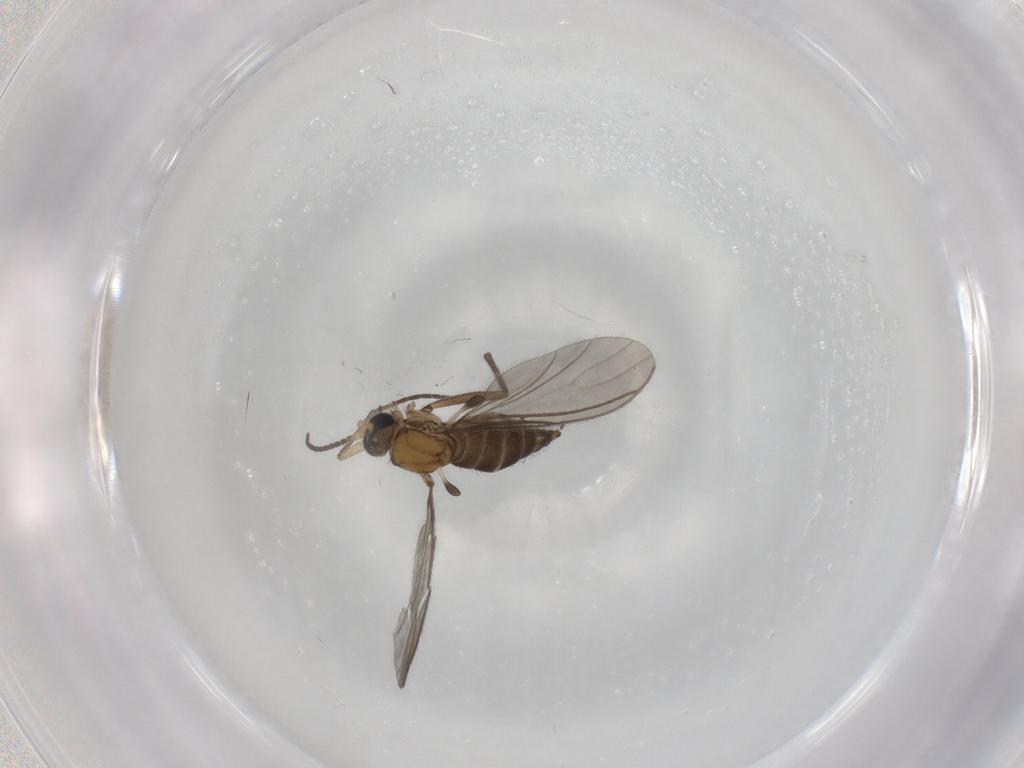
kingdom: Animalia
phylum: Arthropoda
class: Insecta
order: Diptera
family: Sciaridae
